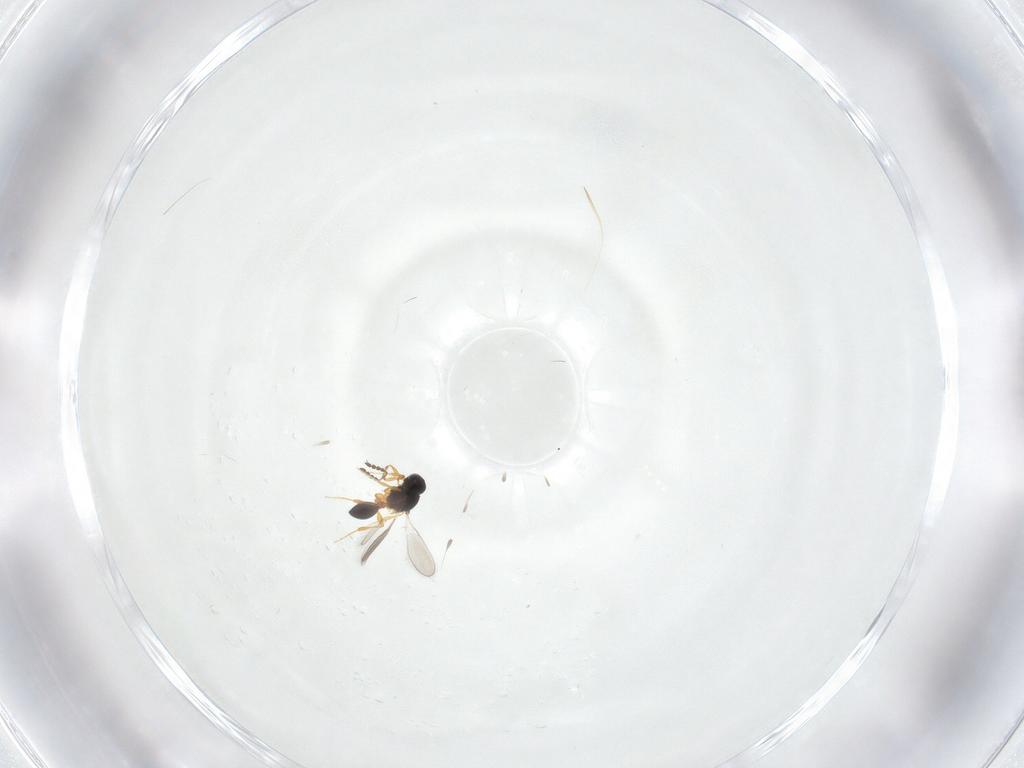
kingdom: Animalia
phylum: Arthropoda
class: Insecta
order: Hymenoptera
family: Platygastridae
